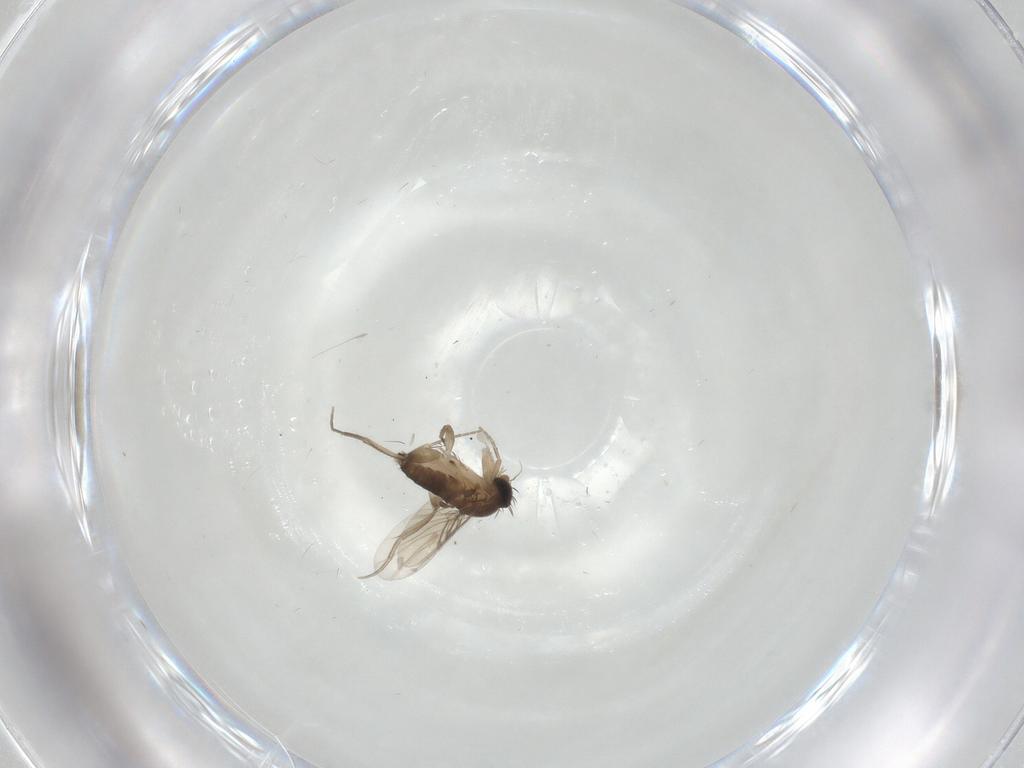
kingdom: Animalia
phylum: Arthropoda
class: Insecta
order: Diptera
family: Phoridae
